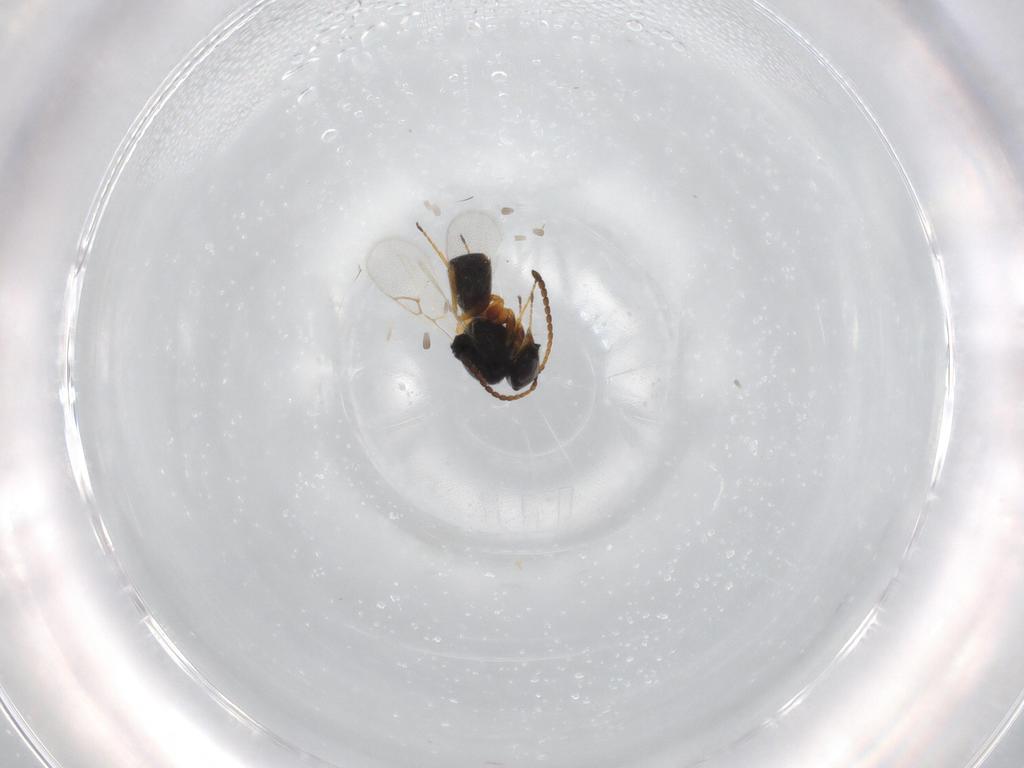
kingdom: Animalia
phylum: Arthropoda
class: Insecta
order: Hymenoptera
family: Figitidae
